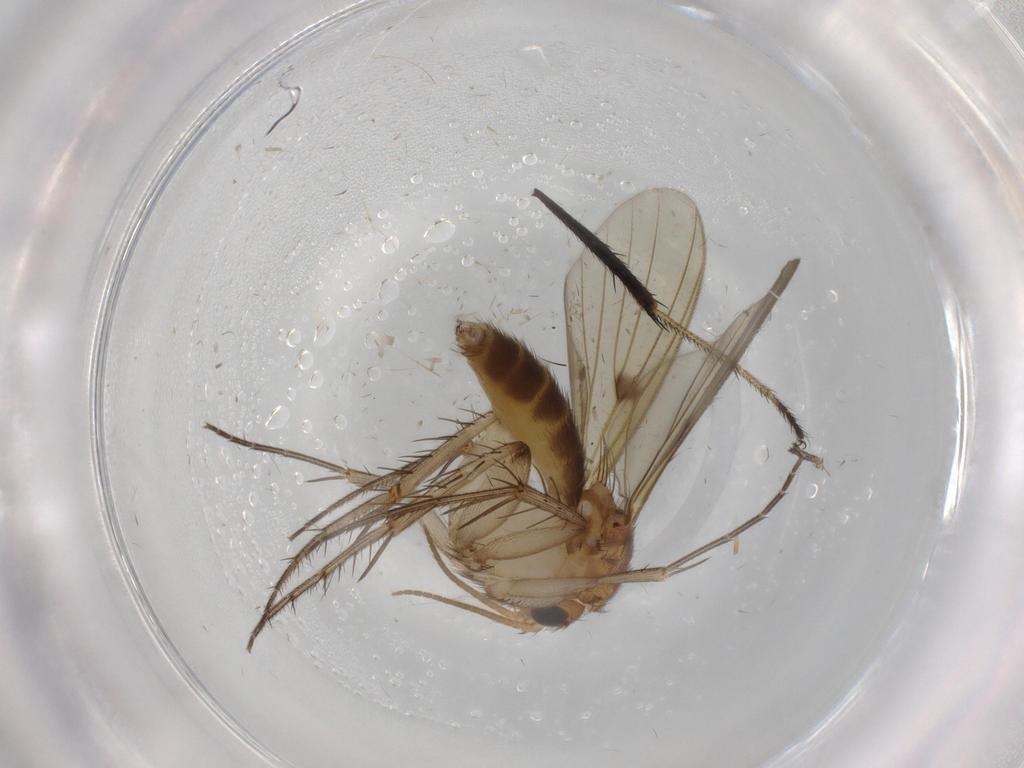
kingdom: Animalia
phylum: Arthropoda
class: Insecta
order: Diptera
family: Mycetophilidae
